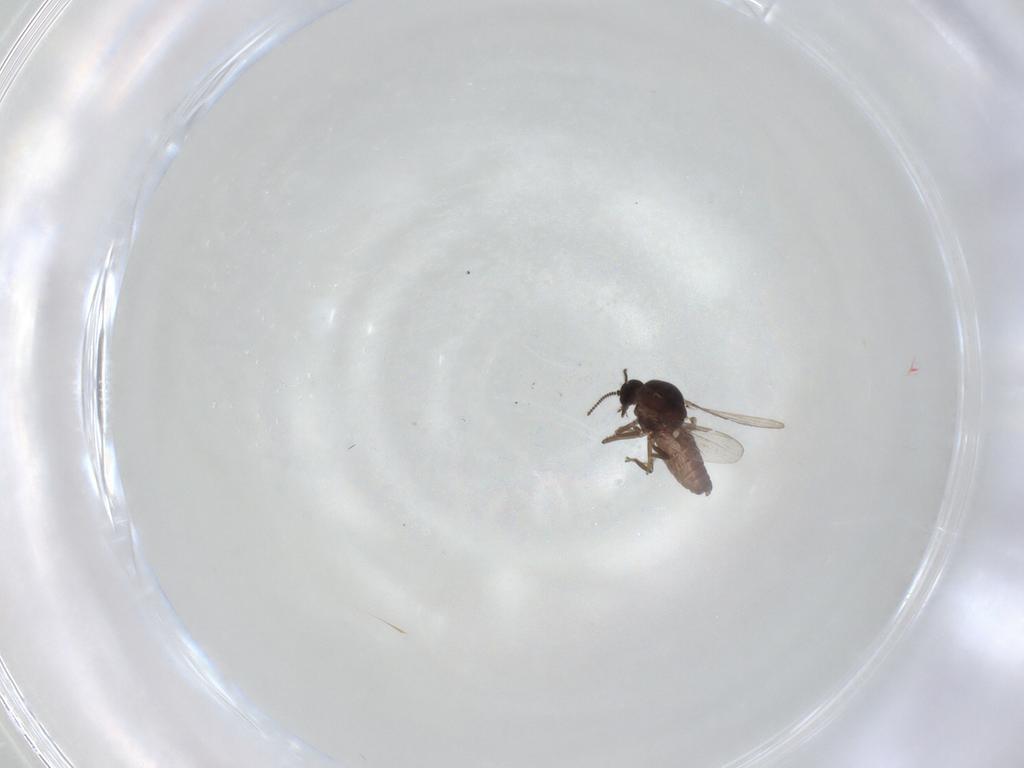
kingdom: Animalia
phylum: Arthropoda
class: Insecta
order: Diptera
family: Ceratopogonidae
